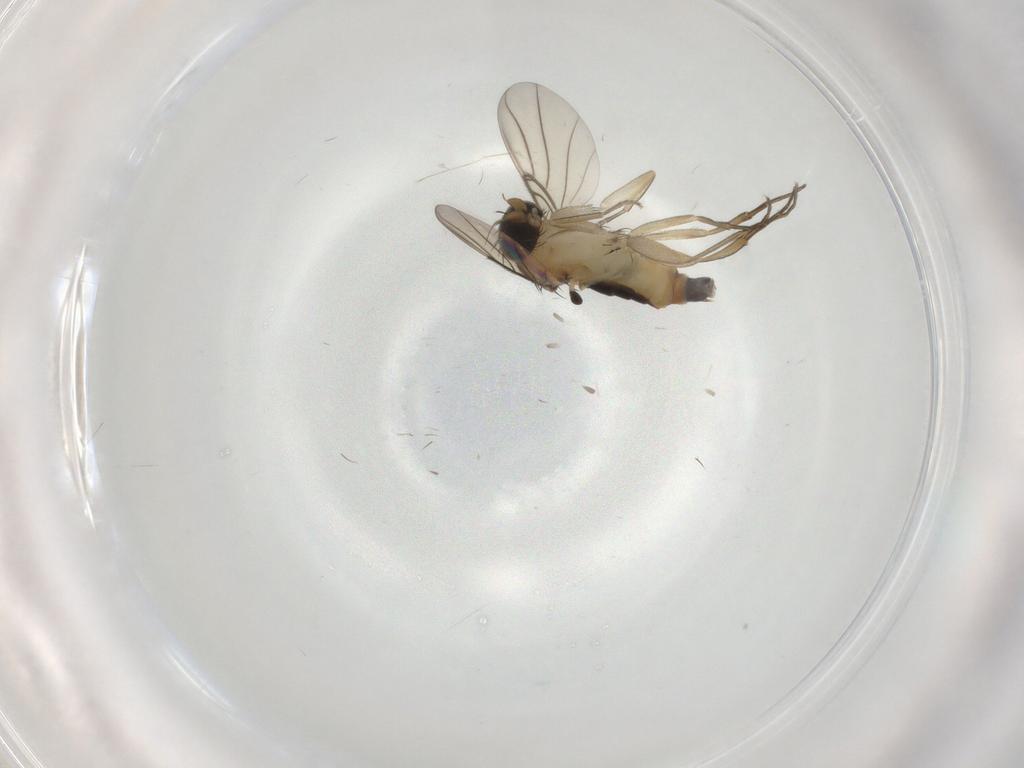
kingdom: Animalia
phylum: Arthropoda
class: Insecta
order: Diptera
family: Phoridae
